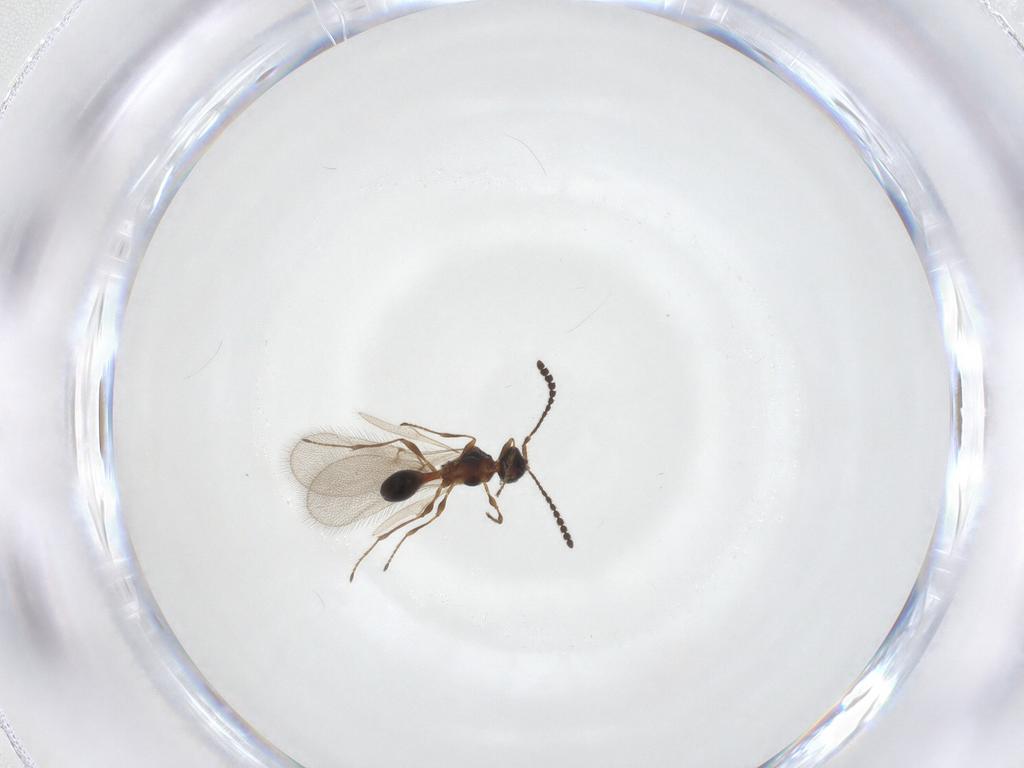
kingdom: Animalia
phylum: Arthropoda
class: Insecta
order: Hymenoptera
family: Diapriidae
